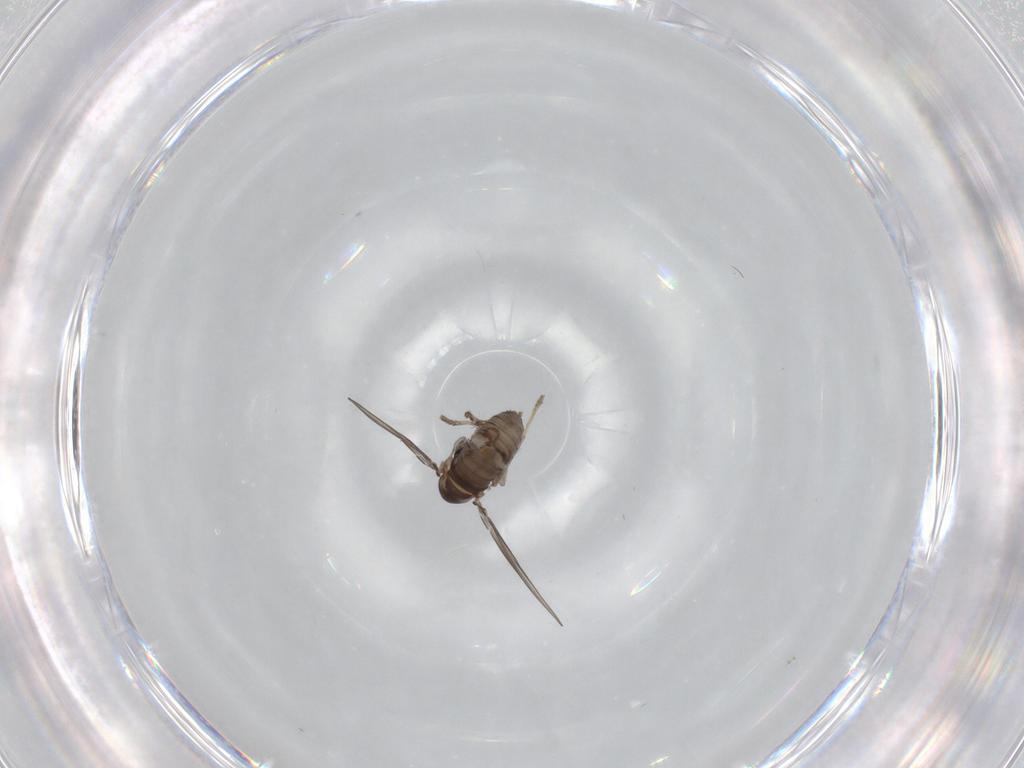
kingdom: Animalia
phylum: Arthropoda
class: Insecta
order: Diptera
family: Psychodidae
